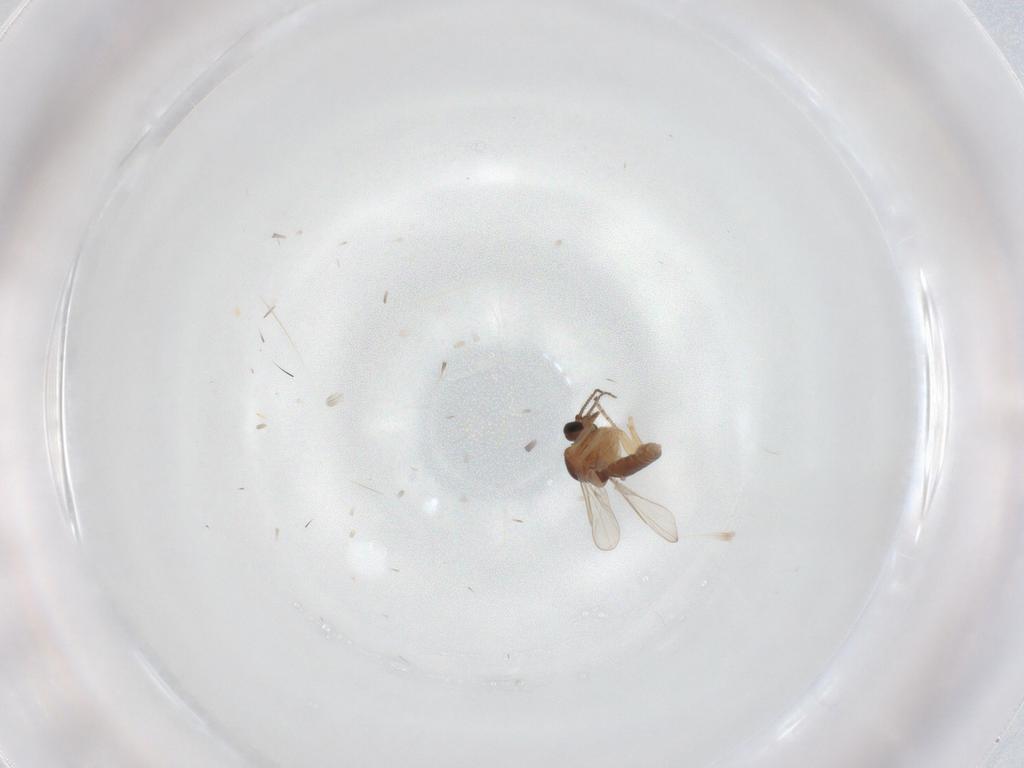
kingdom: Animalia
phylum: Arthropoda
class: Insecta
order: Diptera
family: Ceratopogonidae
